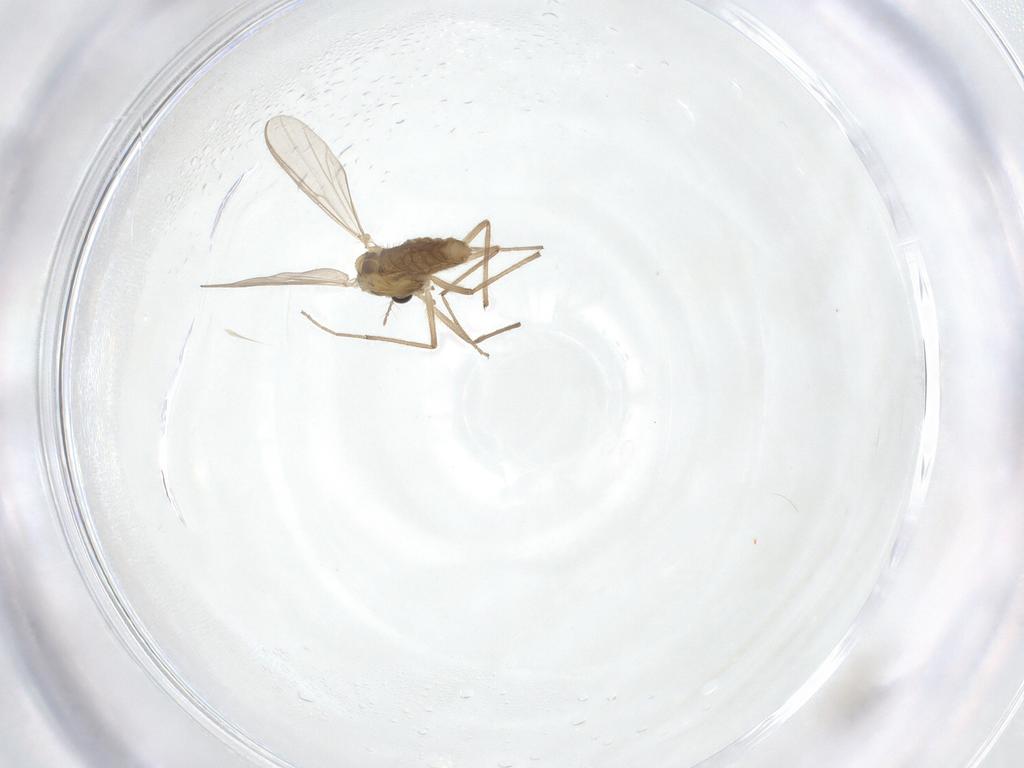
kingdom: Animalia
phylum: Arthropoda
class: Insecta
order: Diptera
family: Chironomidae
